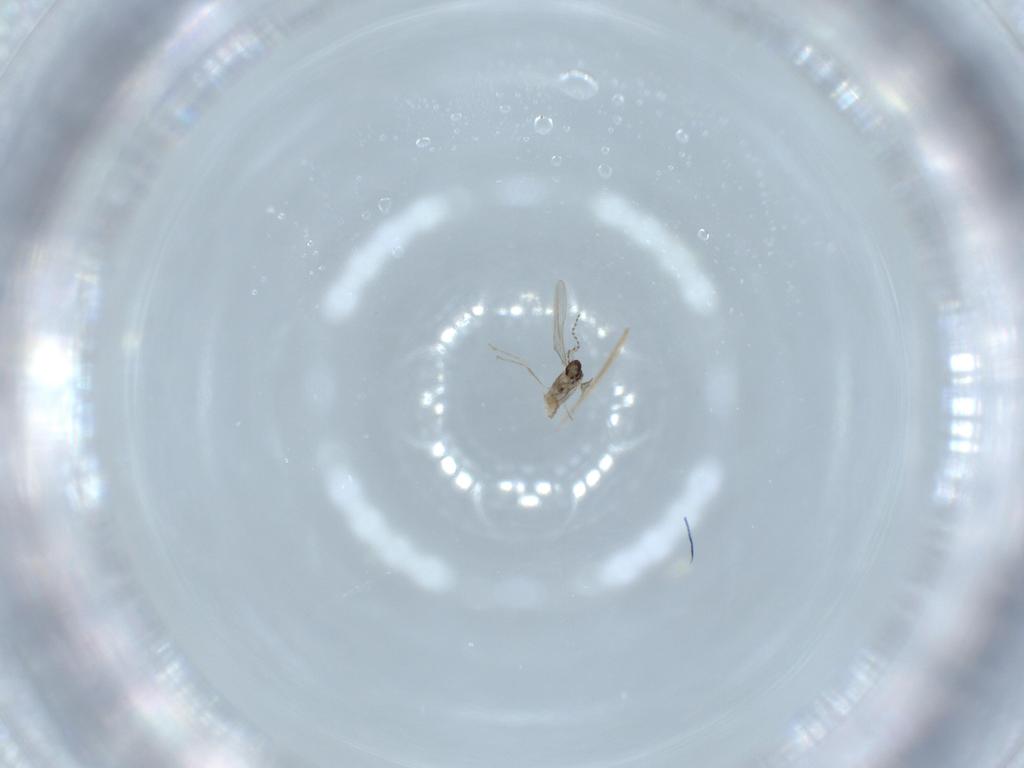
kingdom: Animalia
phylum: Arthropoda
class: Insecta
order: Diptera
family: Cecidomyiidae
